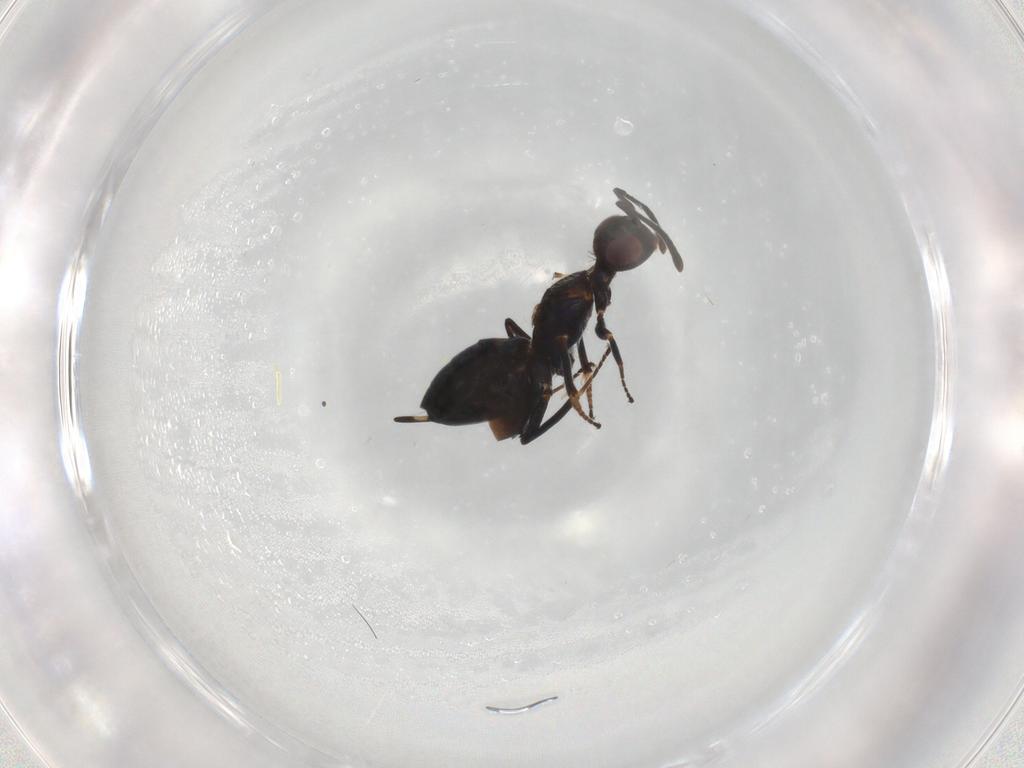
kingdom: Animalia
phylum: Arthropoda
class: Insecta
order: Hymenoptera
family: Eupelmidae
